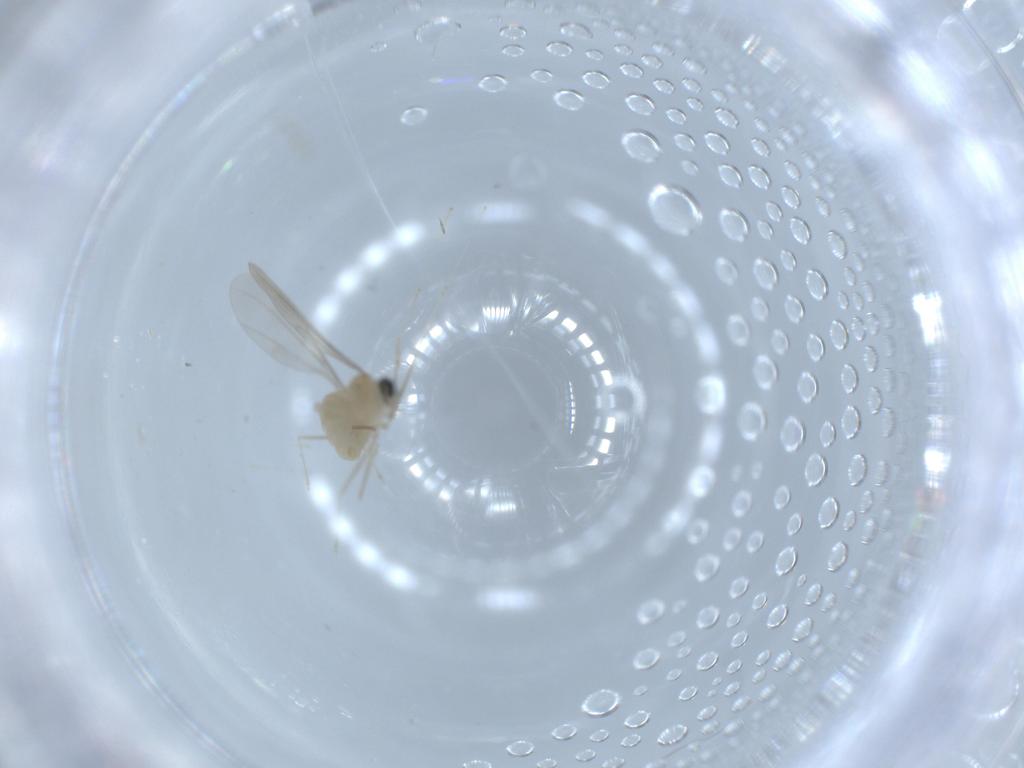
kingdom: Animalia
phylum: Arthropoda
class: Insecta
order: Diptera
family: Cecidomyiidae
